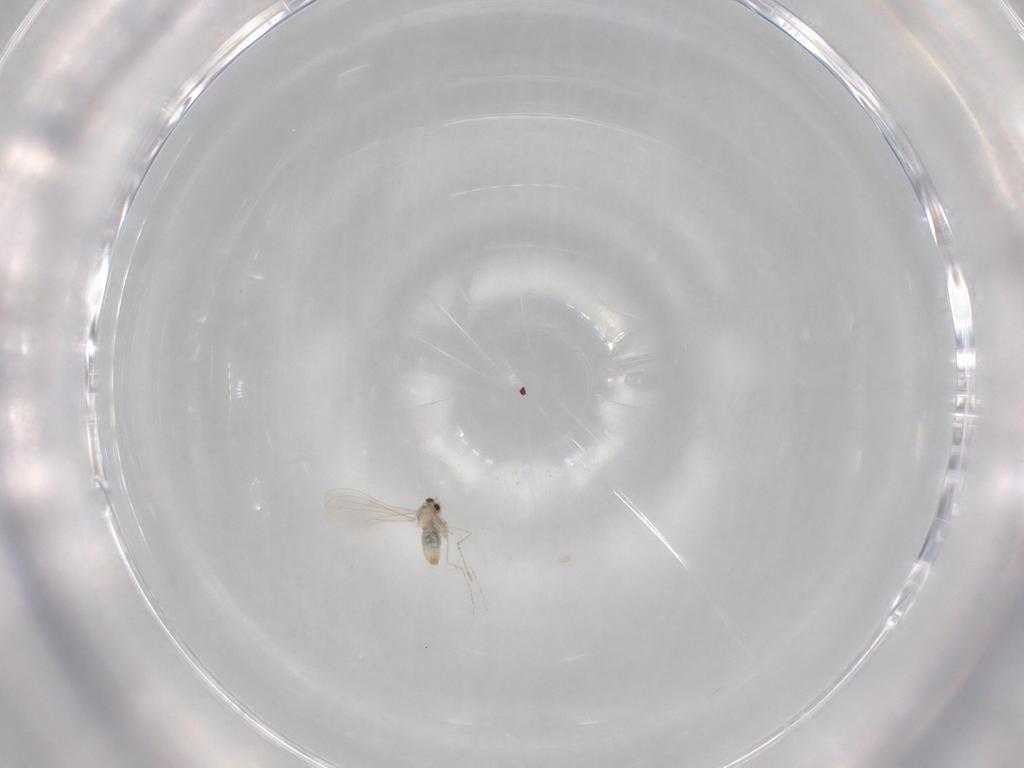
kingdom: Animalia
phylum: Arthropoda
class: Insecta
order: Diptera
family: Cecidomyiidae
